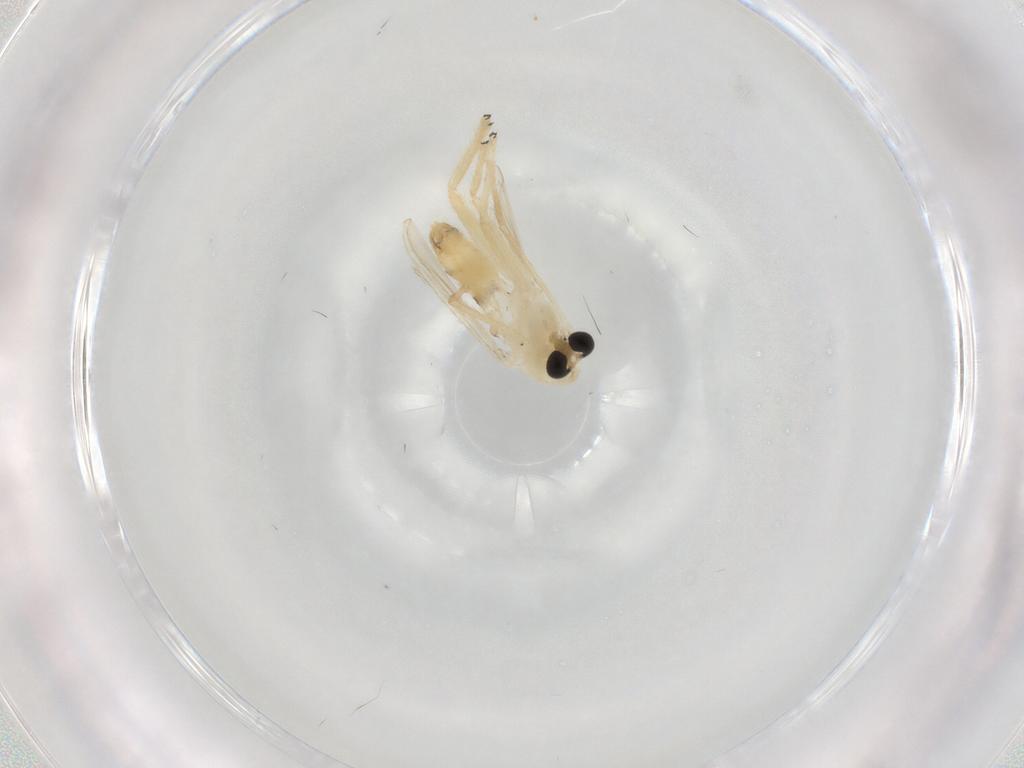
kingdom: Animalia
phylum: Arthropoda
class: Insecta
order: Diptera
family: Chironomidae
